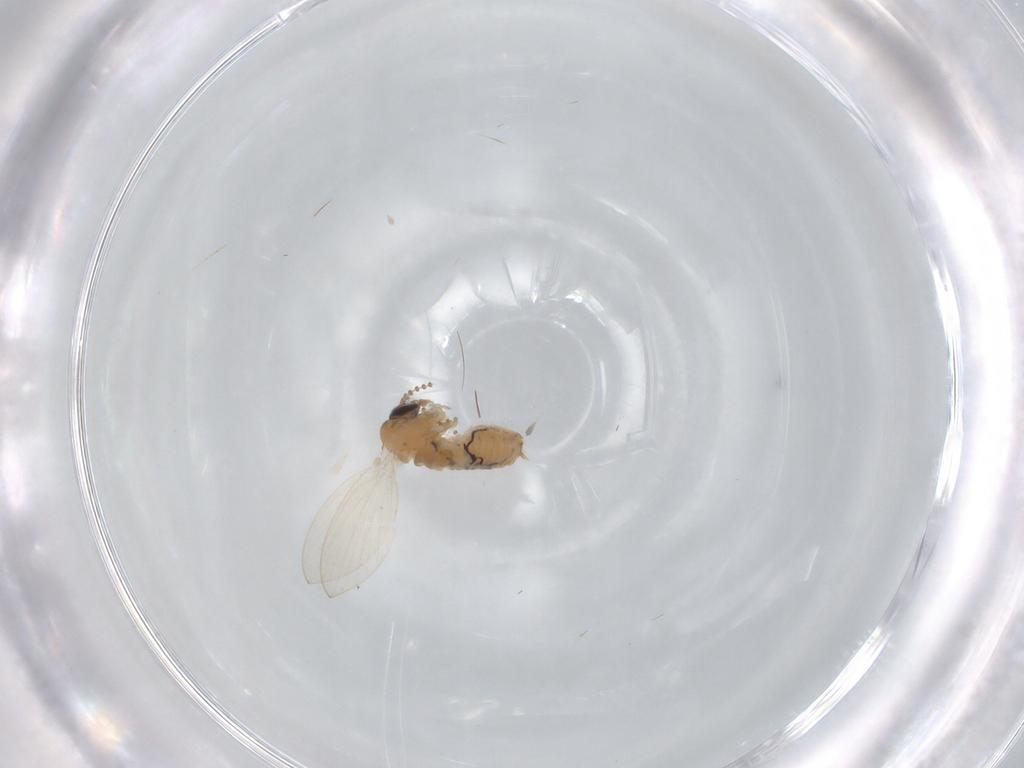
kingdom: Animalia
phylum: Arthropoda
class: Insecta
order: Diptera
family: Psychodidae
